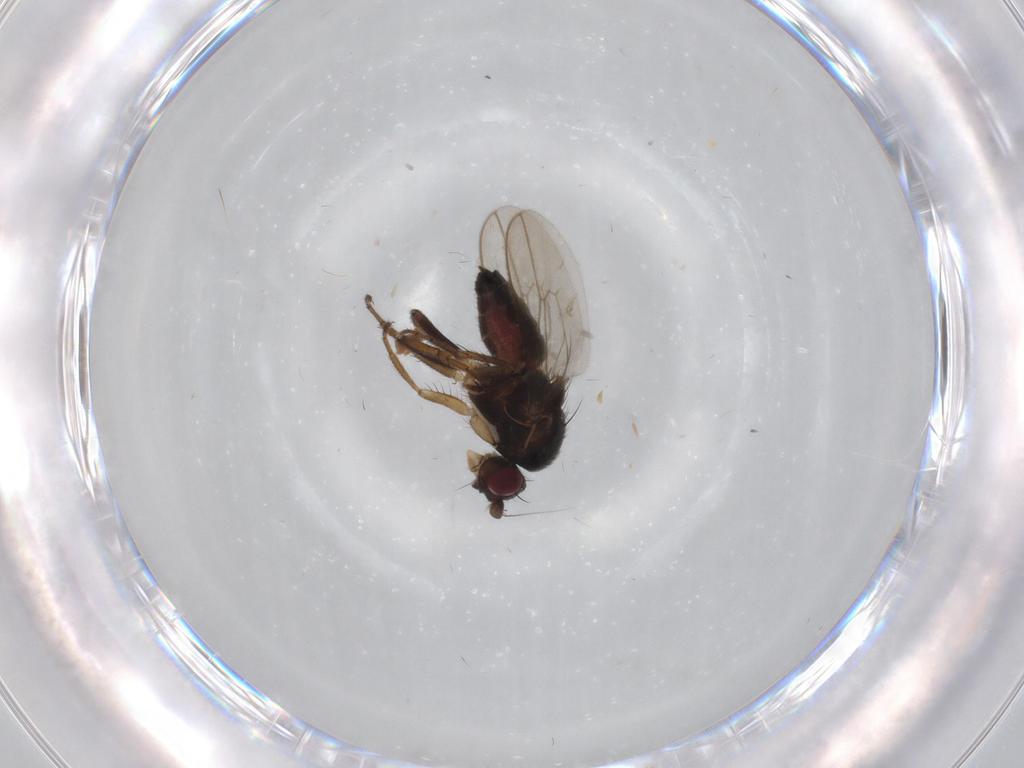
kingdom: Animalia
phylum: Arthropoda
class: Insecta
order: Diptera
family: Sphaeroceridae
